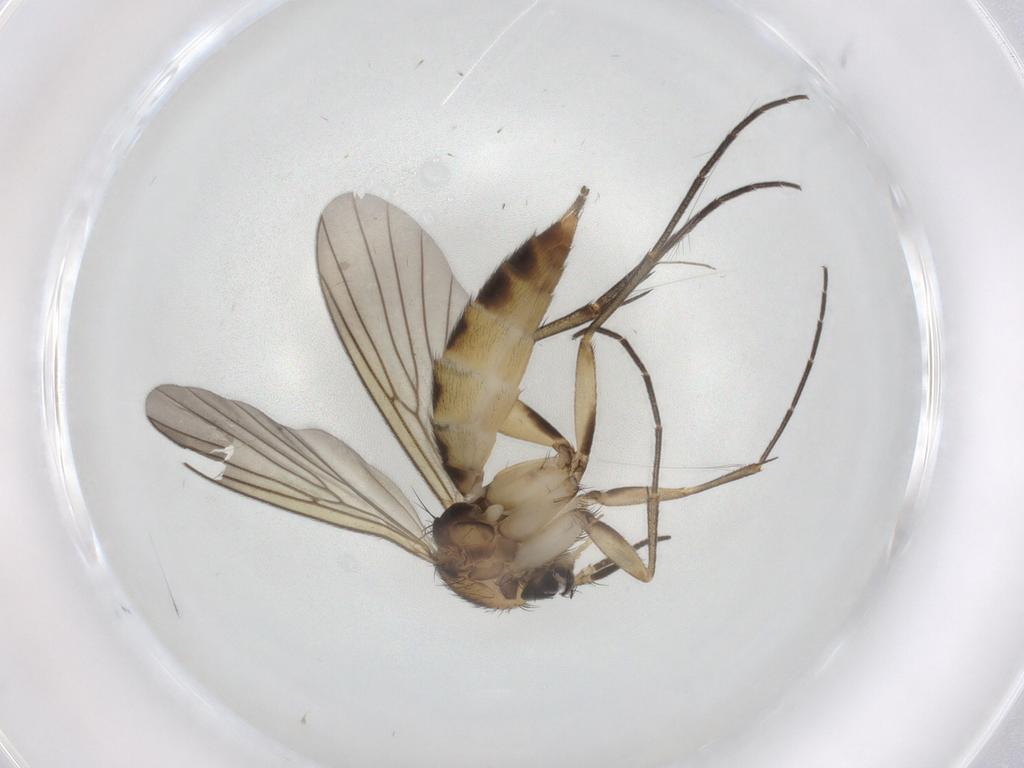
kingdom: Animalia
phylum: Arthropoda
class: Insecta
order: Diptera
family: Mycetophilidae
